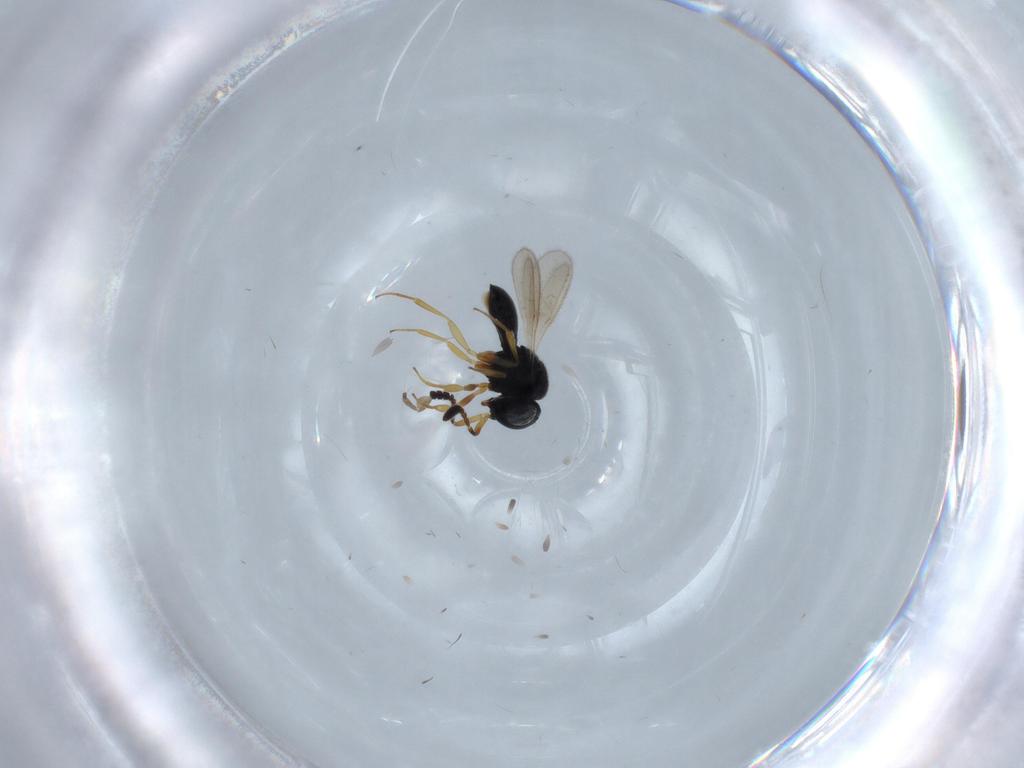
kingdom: Animalia
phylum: Arthropoda
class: Insecta
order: Hymenoptera
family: Scelionidae
